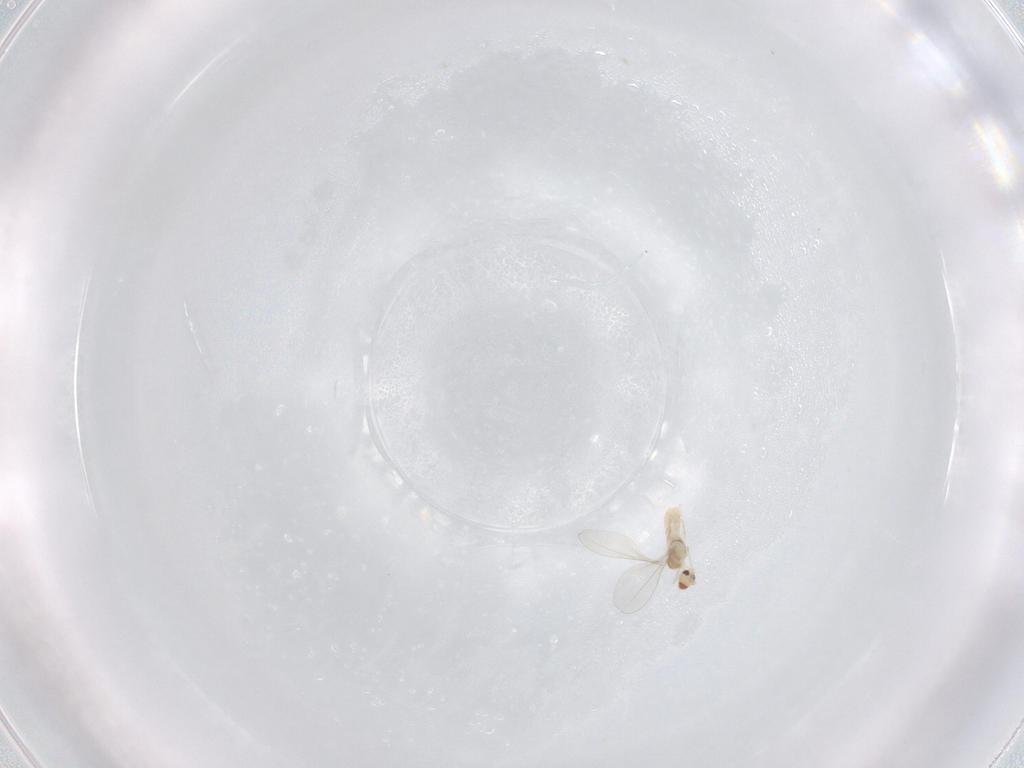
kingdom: Animalia
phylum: Arthropoda
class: Insecta
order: Diptera
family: Cecidomyiidae
